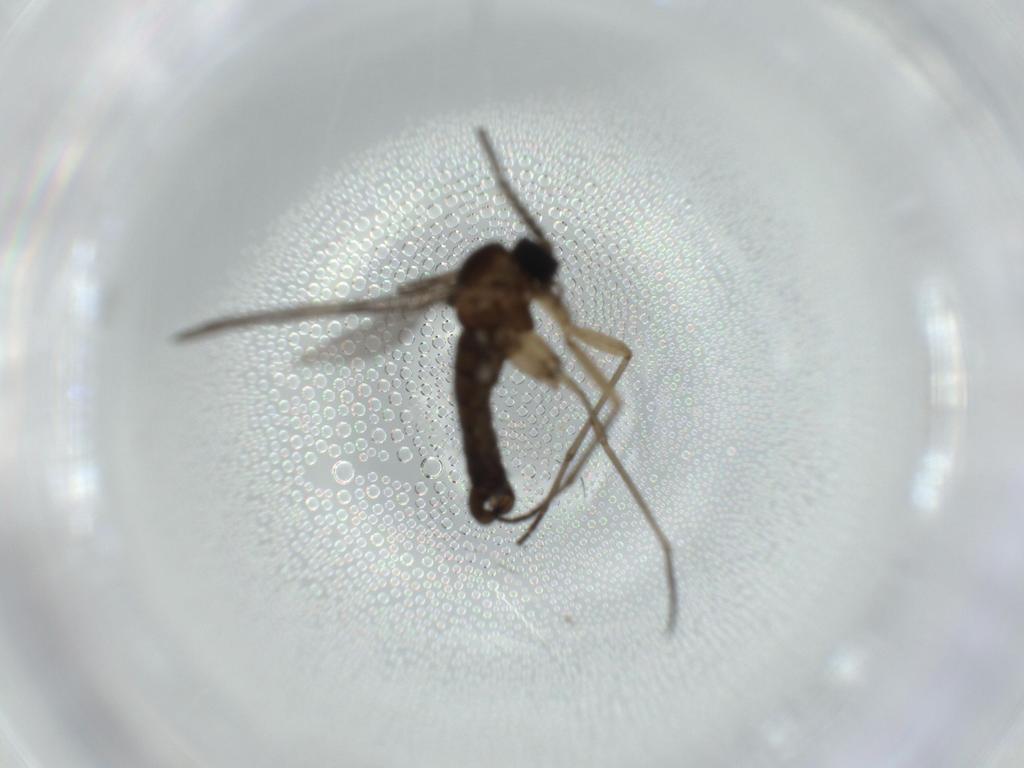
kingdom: Animalia
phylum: Arthropoda
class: Insecta
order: Diptera
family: Sciaridae
